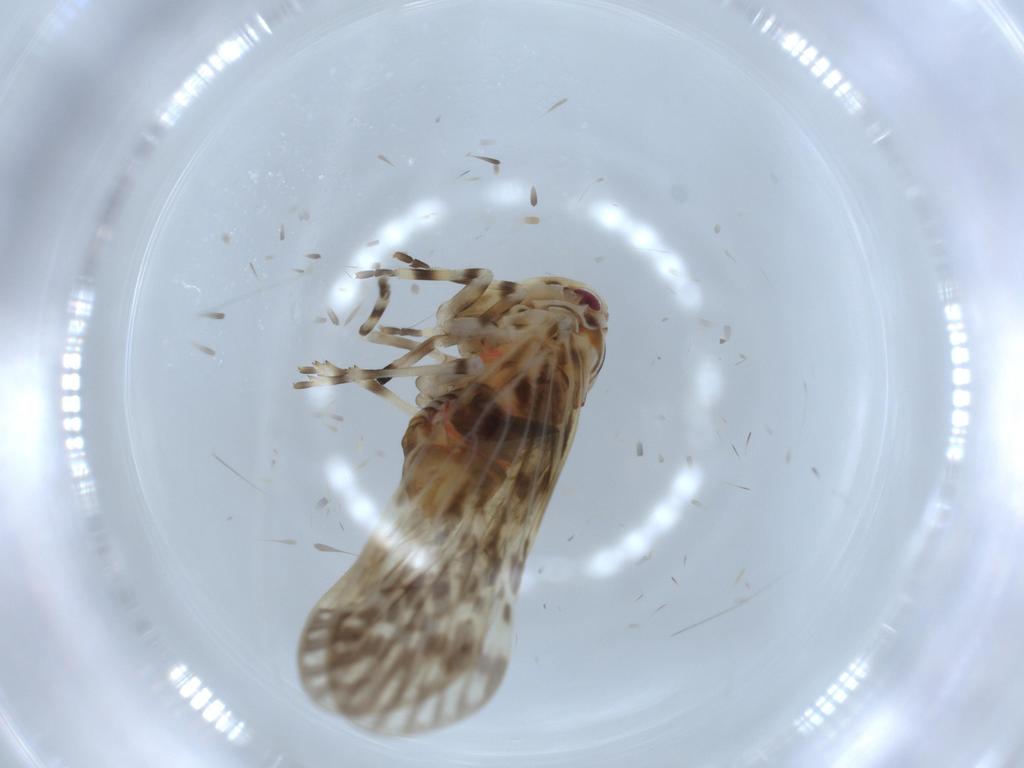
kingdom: Animalia
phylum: Arthropoda
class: Insecta
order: Hemiptera
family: Derbidae
